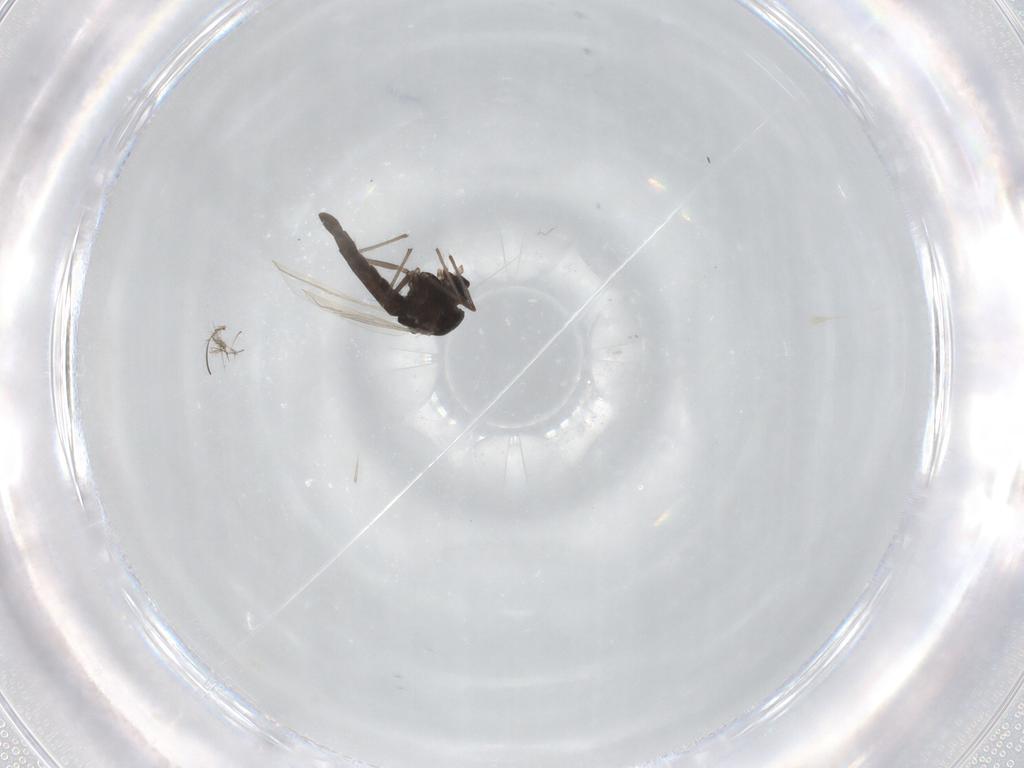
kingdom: Animalia
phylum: Arthropoda
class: Insecta
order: Diptera
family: Chironomidae
